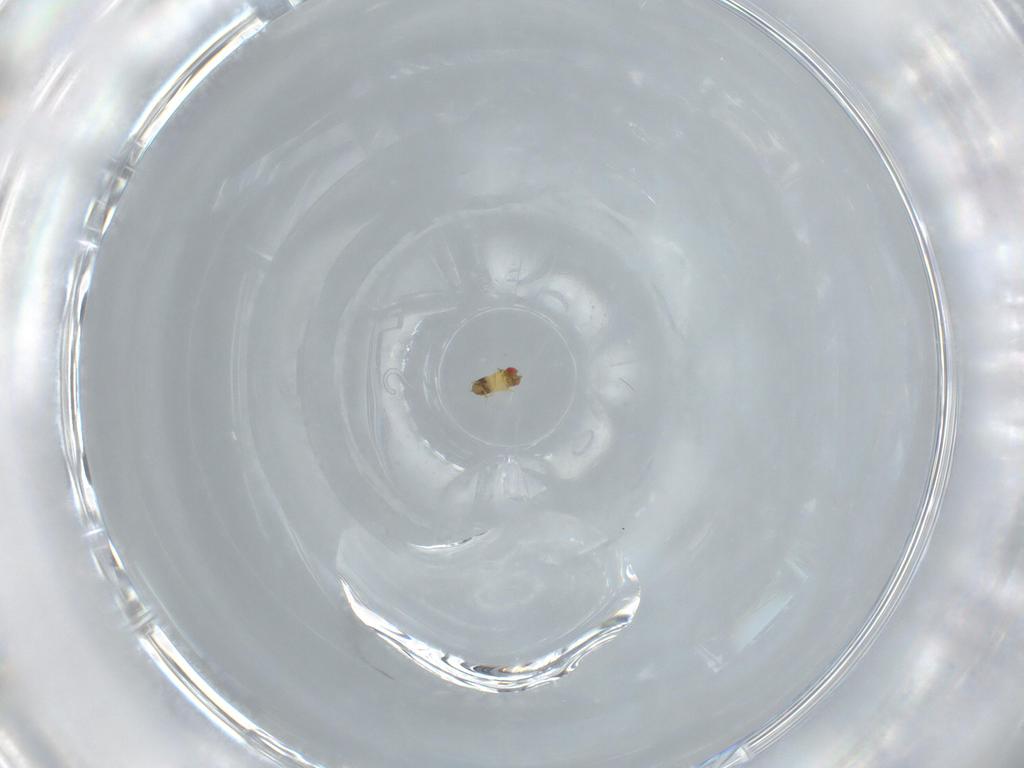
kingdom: Animalia
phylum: Arthropoda
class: Insecta
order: Hymenoptera
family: Trichogrammatidae
